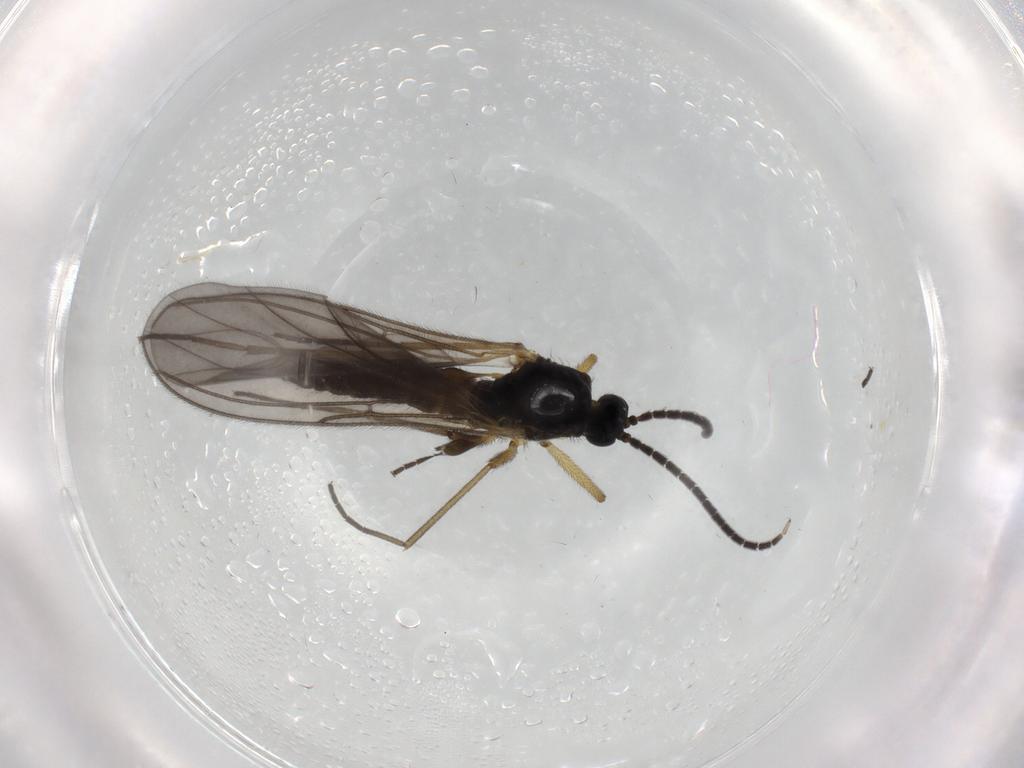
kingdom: Animalia
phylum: Arthropoda
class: Insecta
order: Diptera
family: Sciaridae
